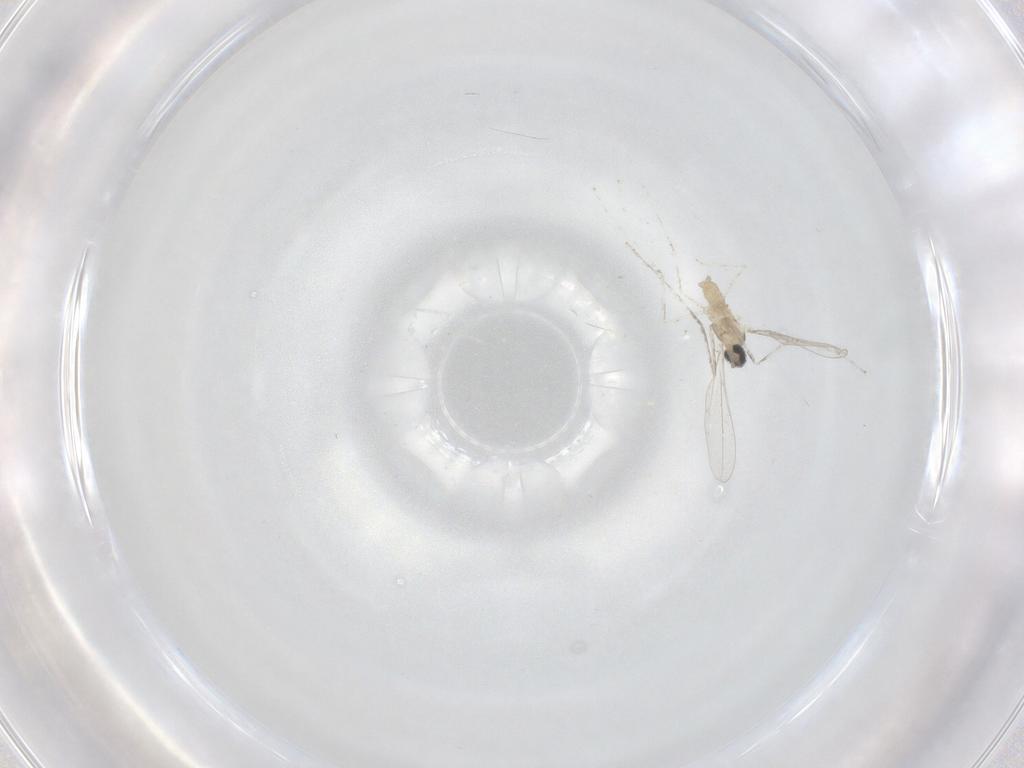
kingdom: Animalia
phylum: Arthropoda
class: Insecta
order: Diptera
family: Cecidomyiidae
